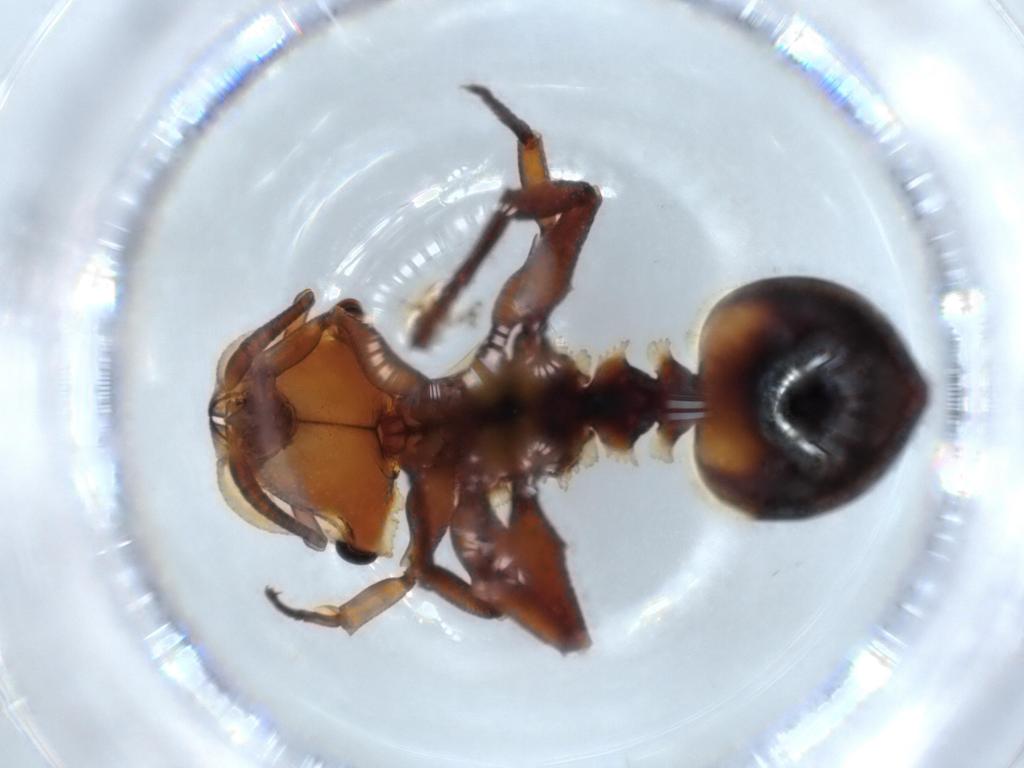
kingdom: Animalia
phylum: Arthropoda
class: Insecta
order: Hymenoptera
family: Formicidae
